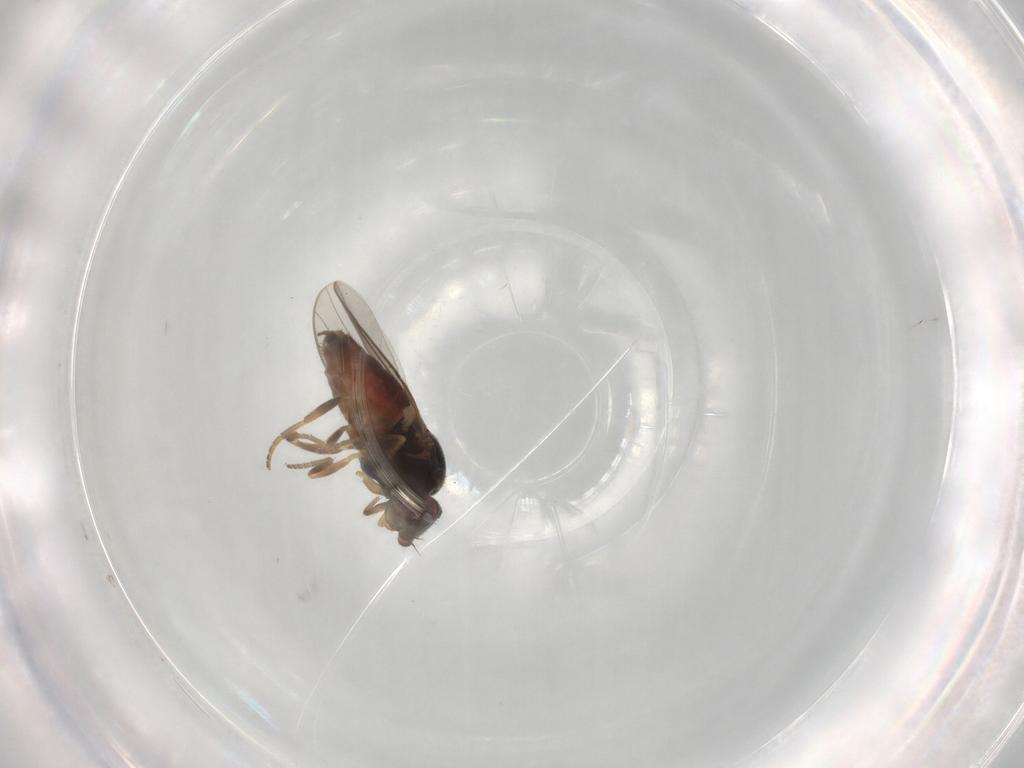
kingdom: Animalia
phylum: Arthropoda
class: Insecta
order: Diptera
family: Chloropidae
